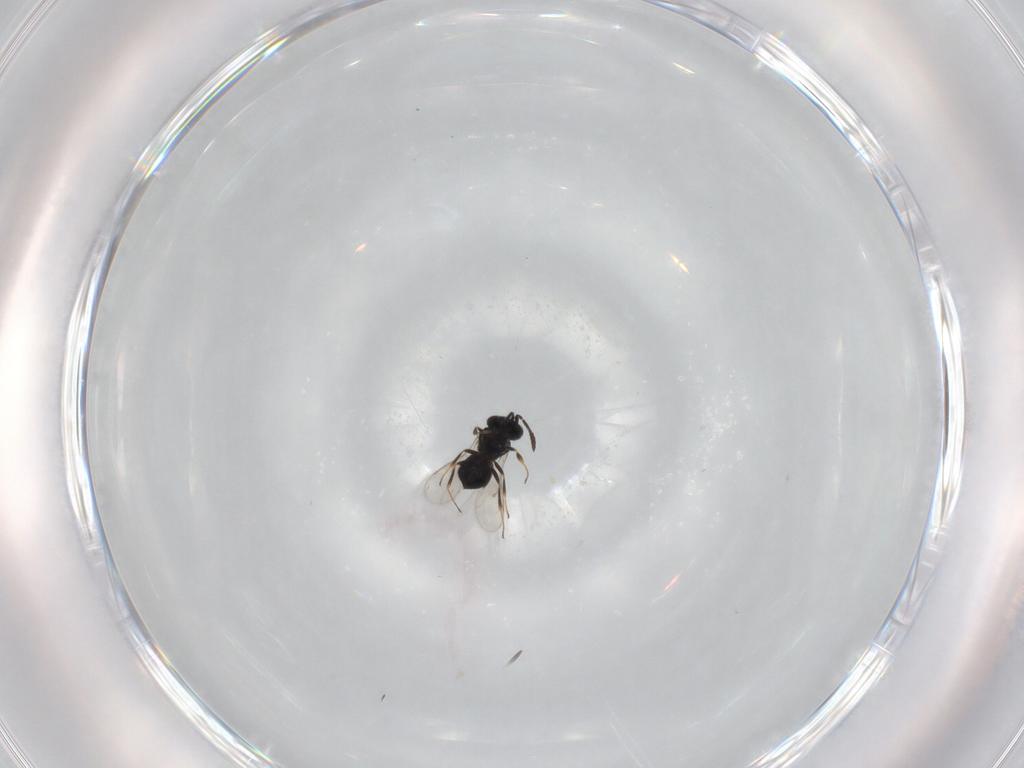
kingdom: Animalia
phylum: Arthropoda
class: Insecta
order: Hymenoptera
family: Scelionidae
